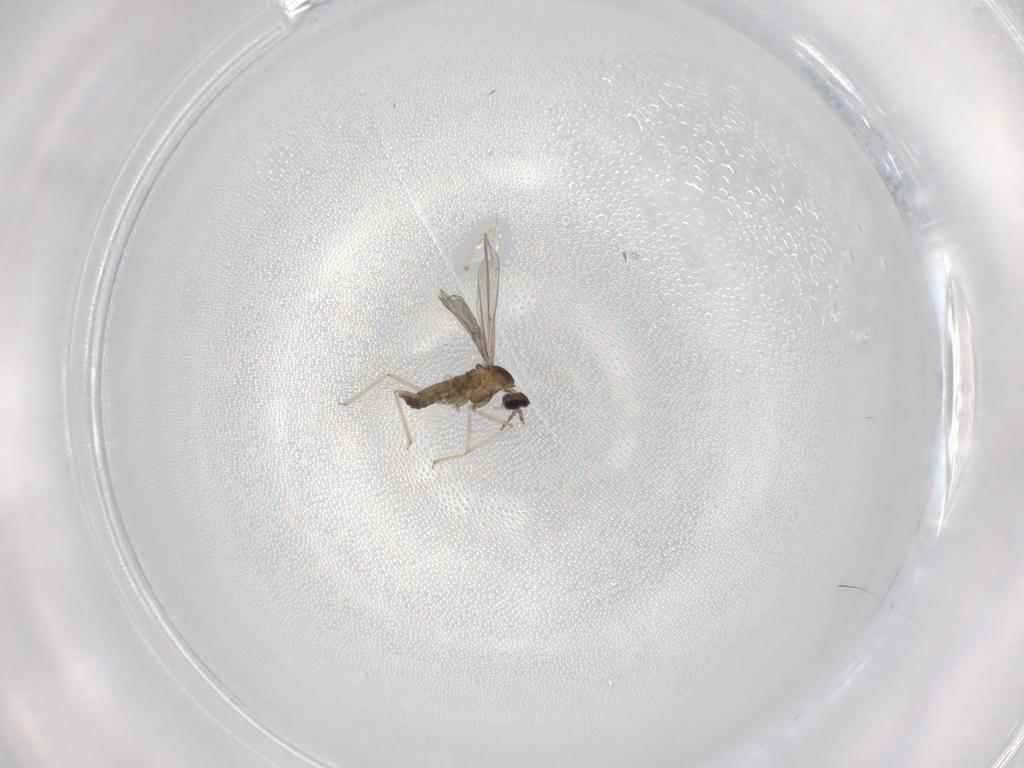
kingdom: Animalia
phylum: Arthropoda
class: Insecta
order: Diptera
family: Cecidomyiidae
